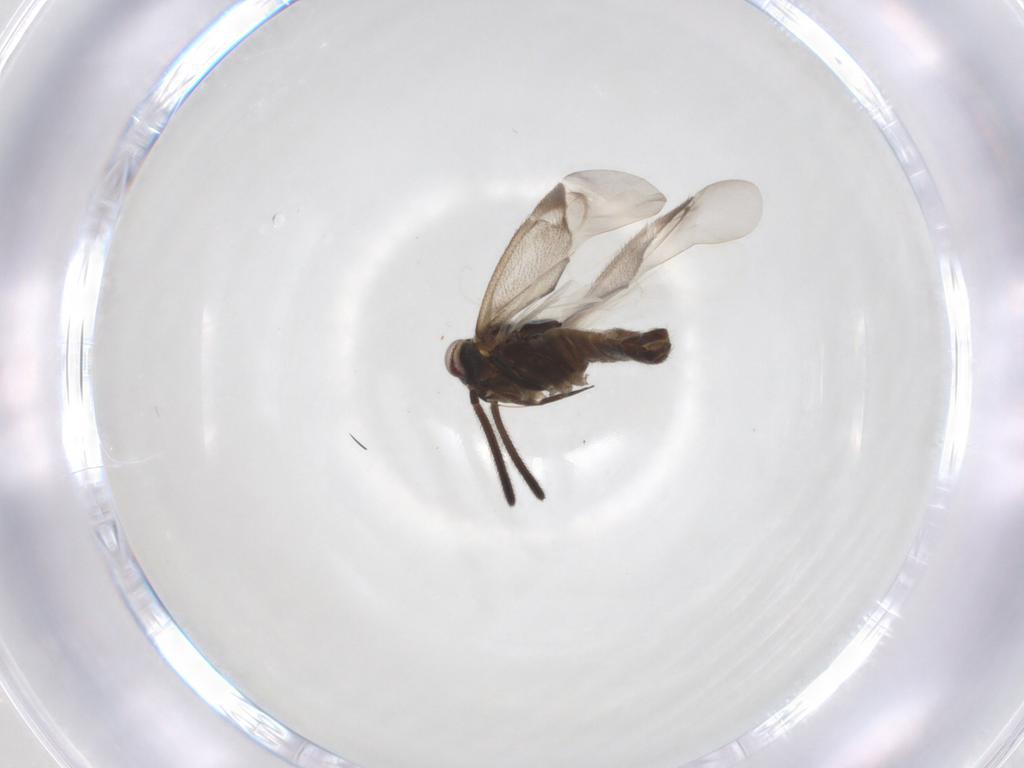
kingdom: Animalia
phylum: Arthropoda
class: Insecta
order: Hemiptera
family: Miridae
